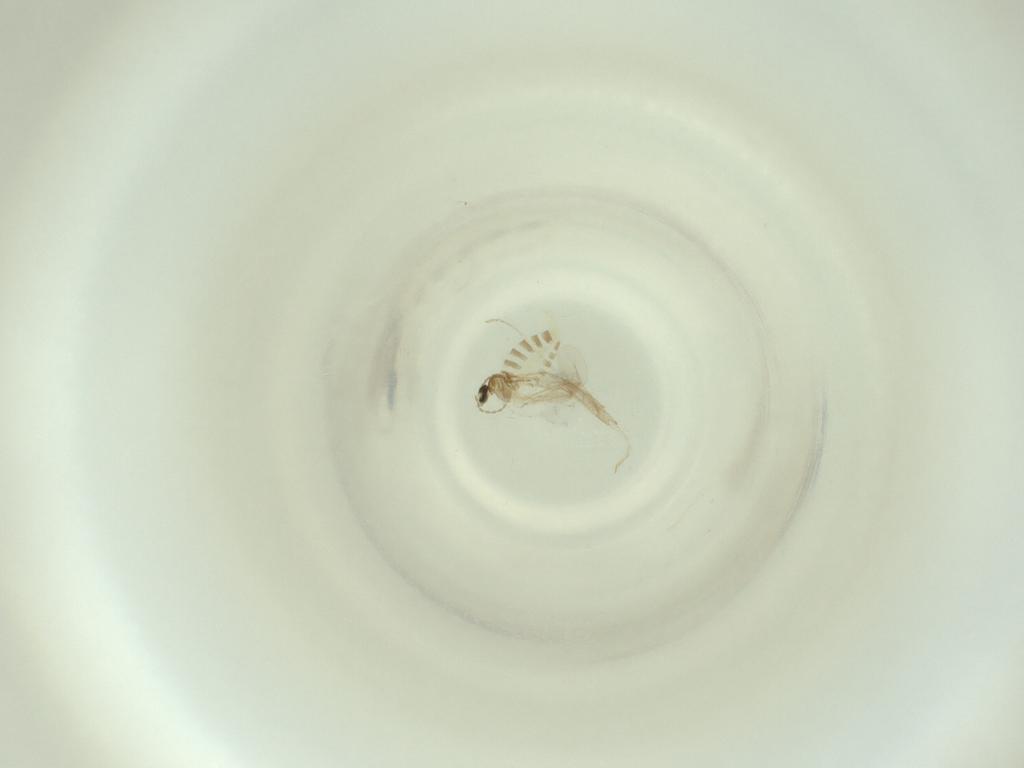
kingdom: Animalia
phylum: Arthropoda
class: Insecta
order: Diptera
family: Cecidomyiidae
